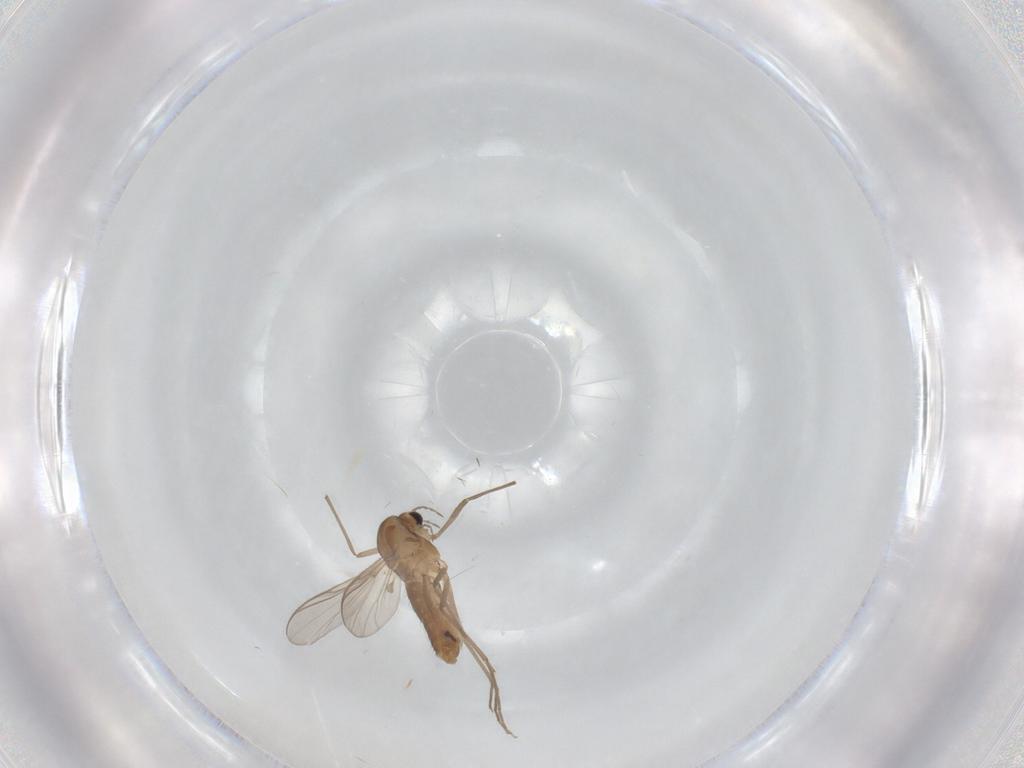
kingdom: Animalia
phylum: Arthropoda
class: Insecta
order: Diptera
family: Chironomidae
